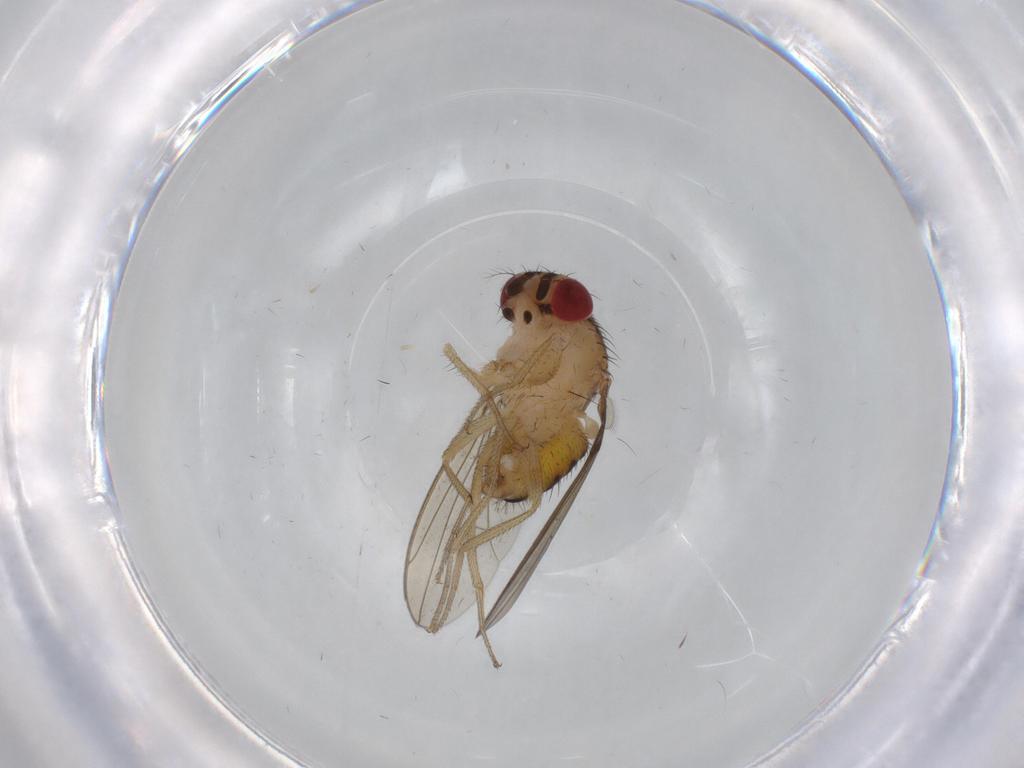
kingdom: Animalia
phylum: Arthropoda
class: Insecta
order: Diptera
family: Drosophilidae
